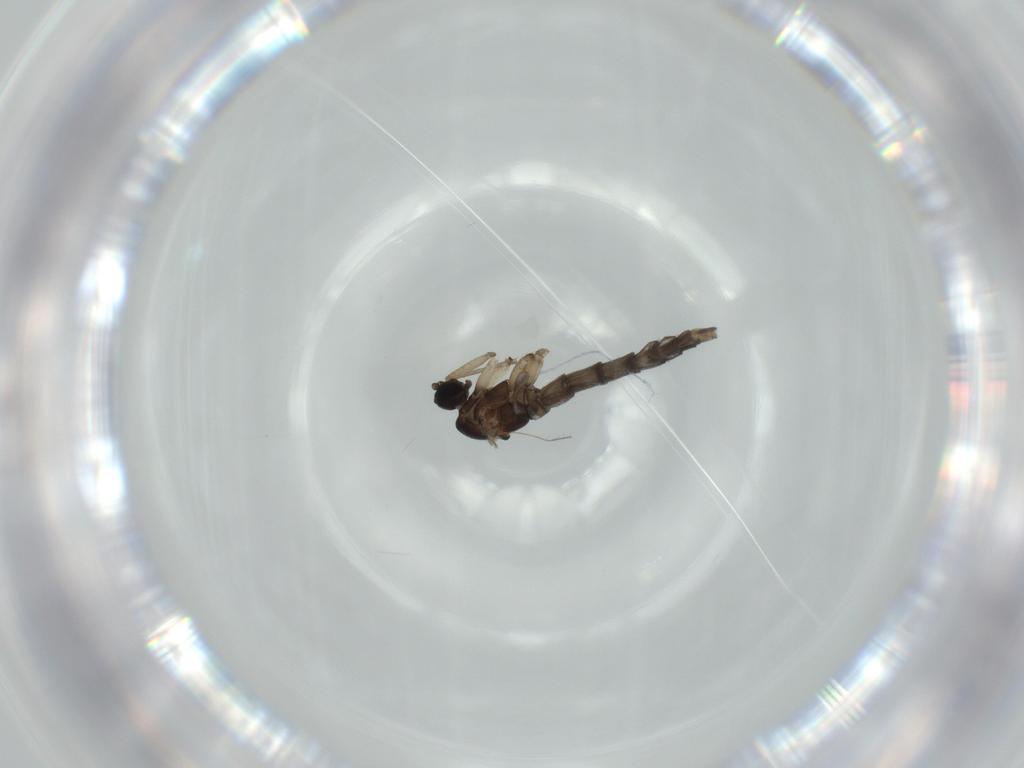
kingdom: Animalia
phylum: Arthropoda
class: Insecta
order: Diptera
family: Sciaridae
